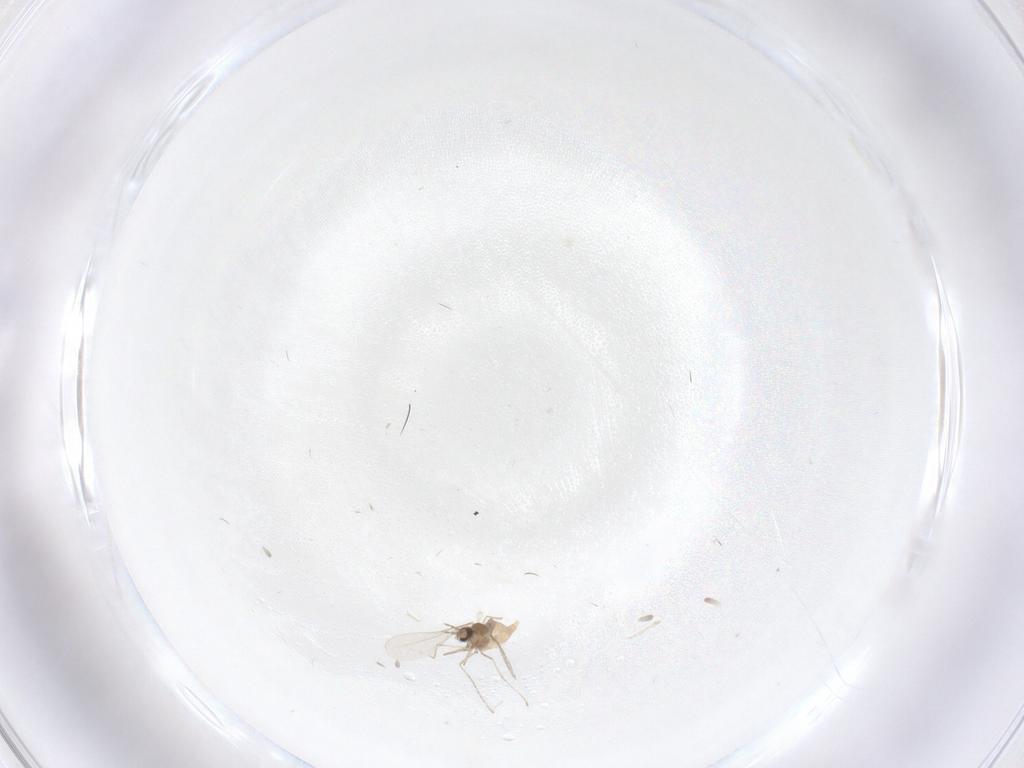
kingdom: Animalia
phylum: Arthropoda
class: Insecta
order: Diptera
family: Cecidomyiidae
